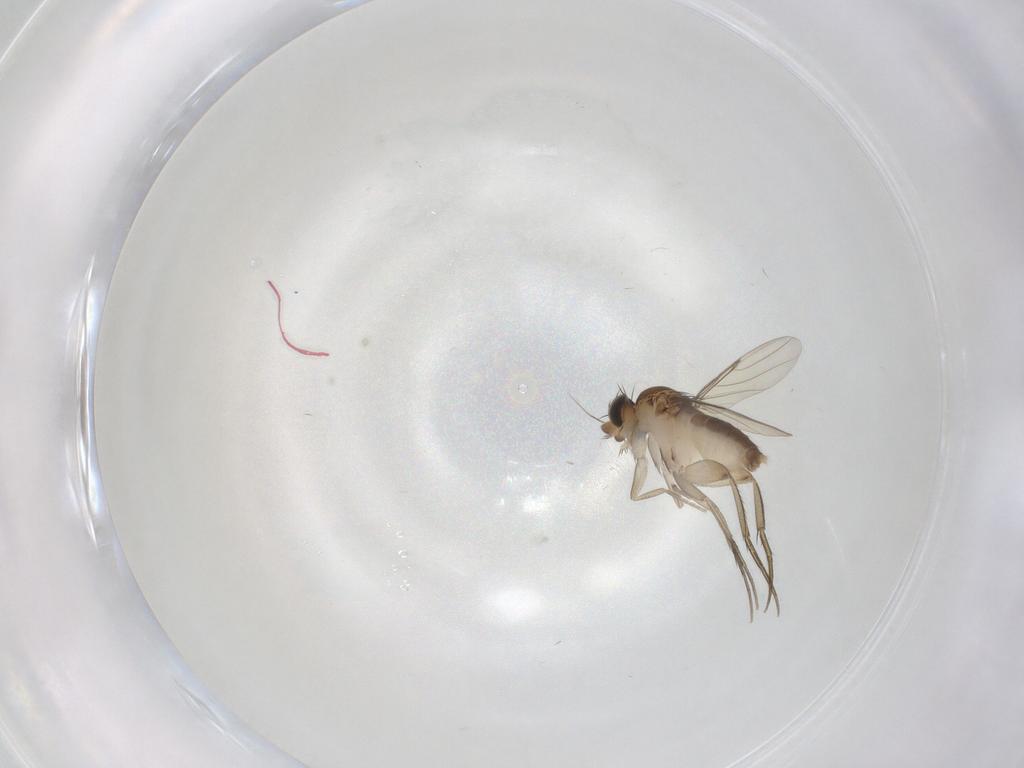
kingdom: Animalia
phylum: Arthropoda
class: Insecta
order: Diptera
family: Phoridae
